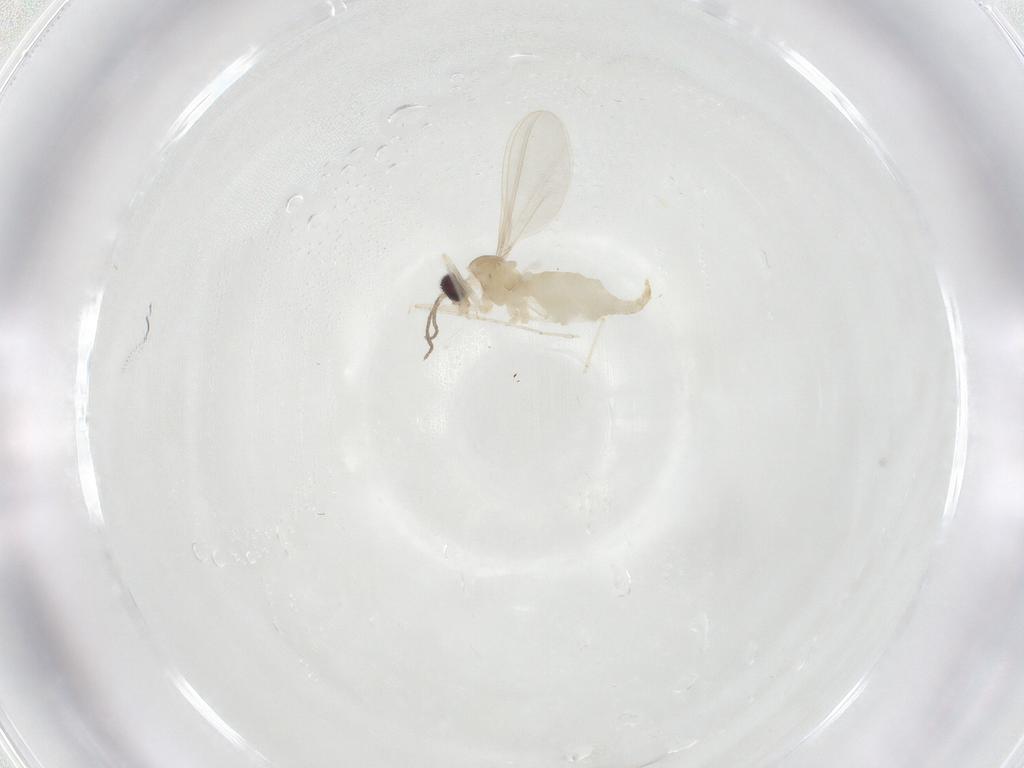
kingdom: Animalia
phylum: Arthropoda
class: Insecta
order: Diptera
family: Cecidomyiidae
